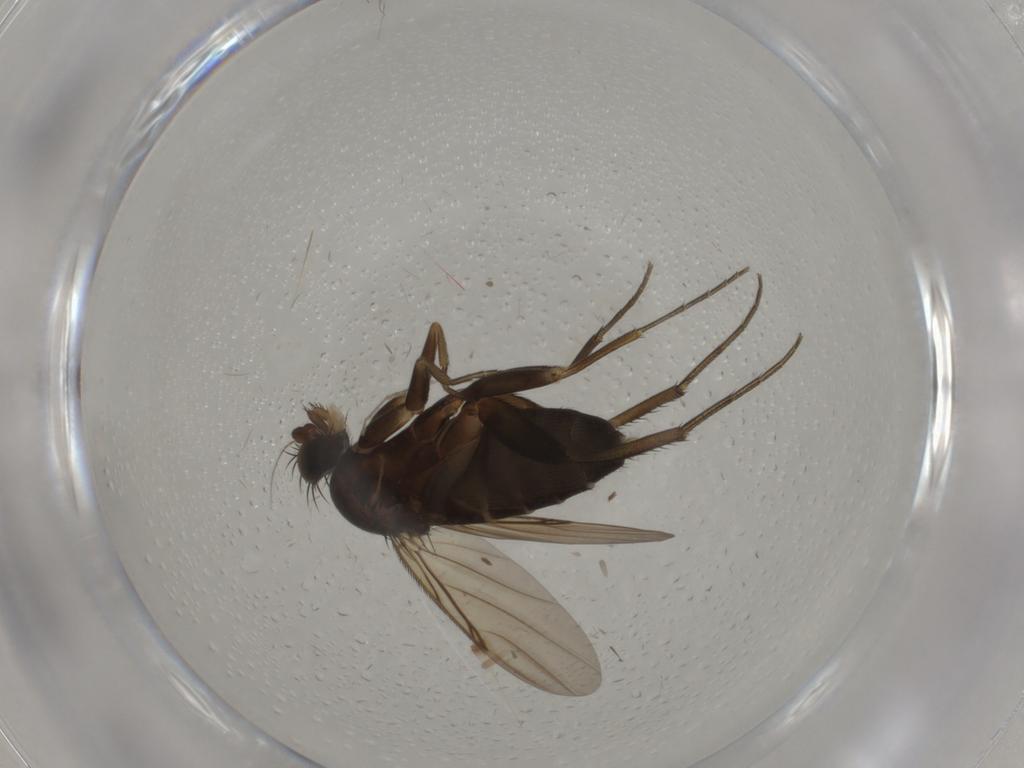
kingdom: Animalia
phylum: Arthropoda
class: Insecta
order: Diptera
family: Phoridae
